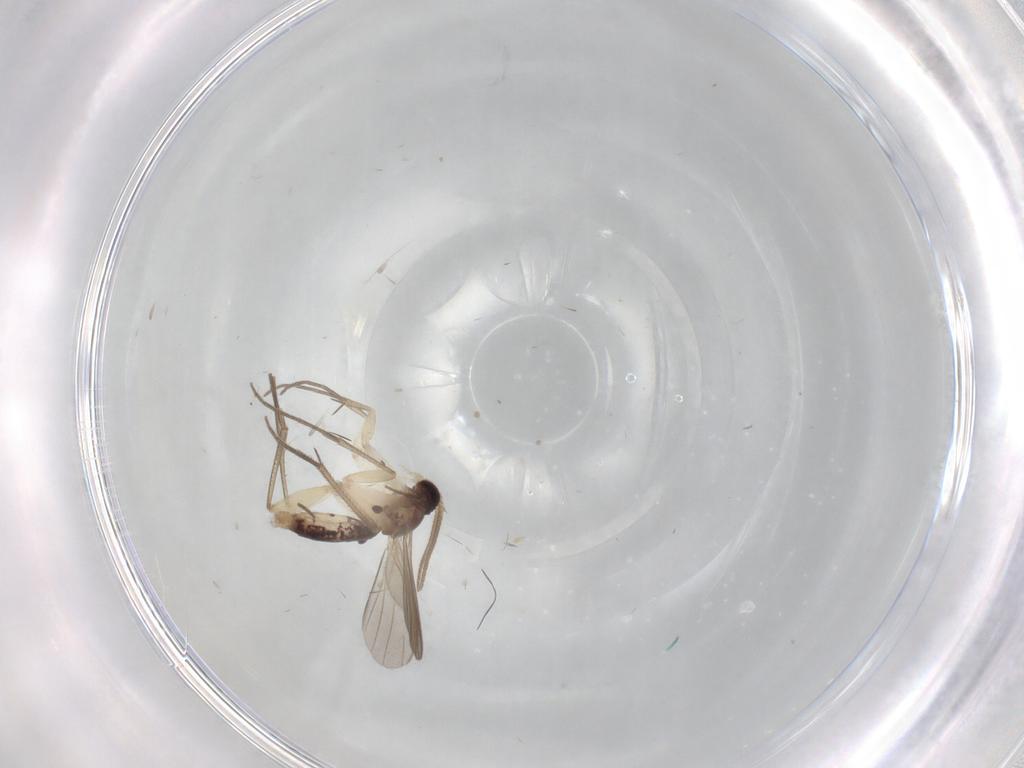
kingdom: Animalia
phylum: Arthropoda
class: Insecta
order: Diptera
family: Mycetophilidae
